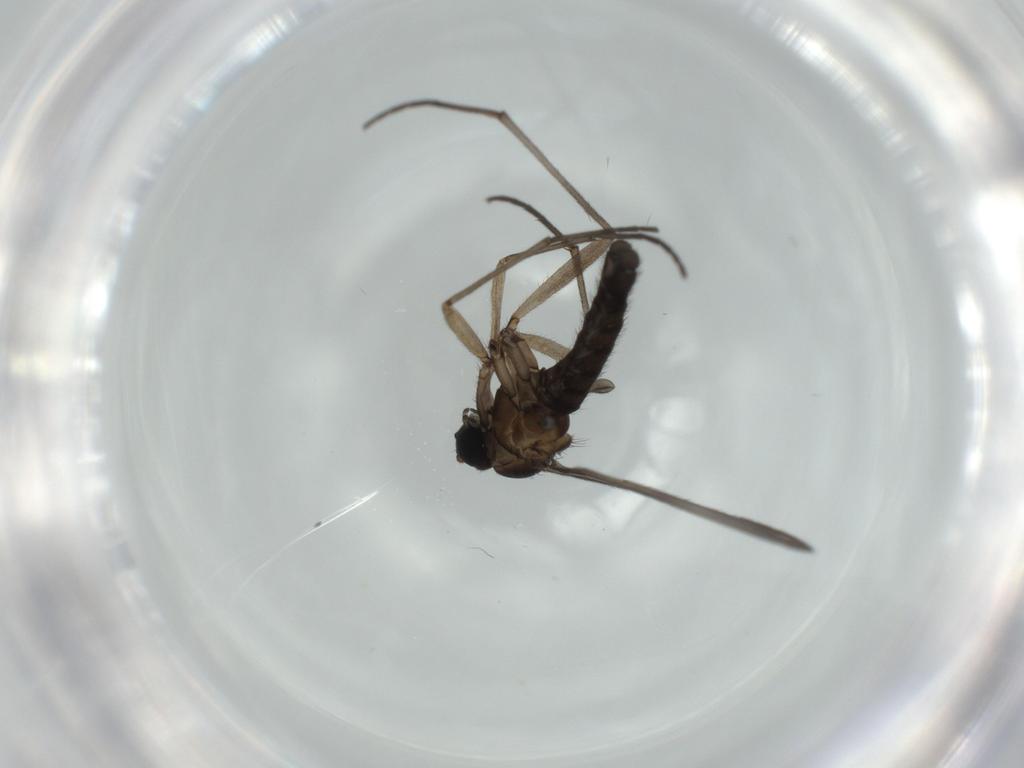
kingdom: Animalia
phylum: Arthropoda
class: Insecta
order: Diptera
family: Sciaridae
